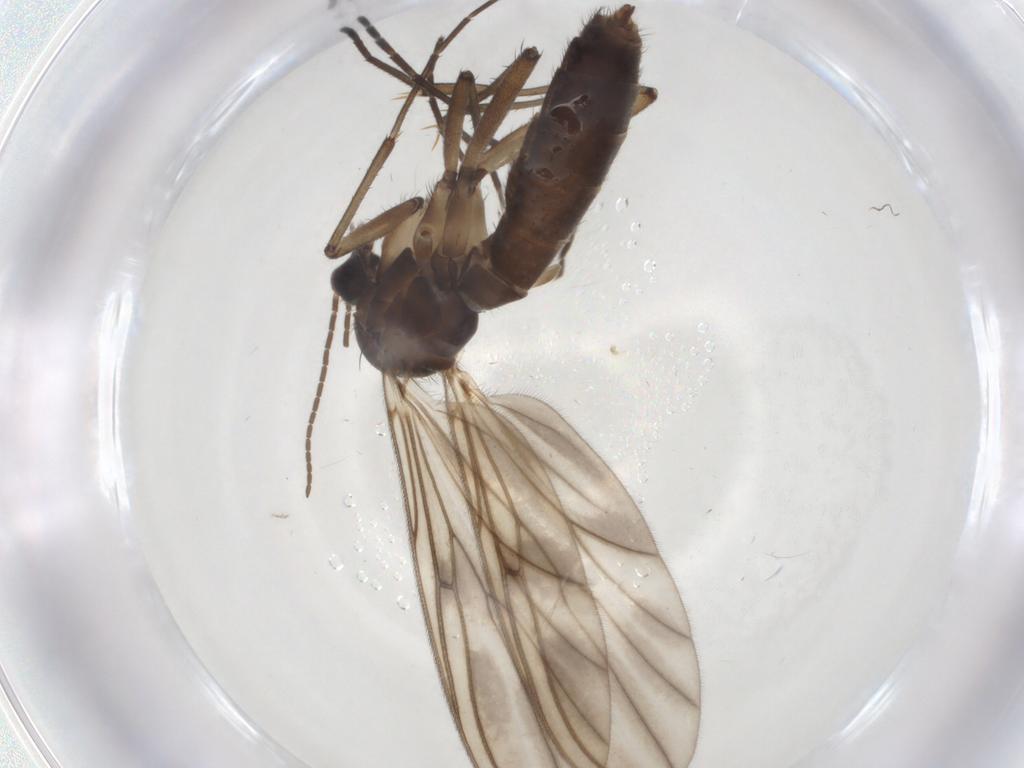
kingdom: Animalia
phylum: Arthropoda
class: Insecta
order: Diptera
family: Mycetophilidae
